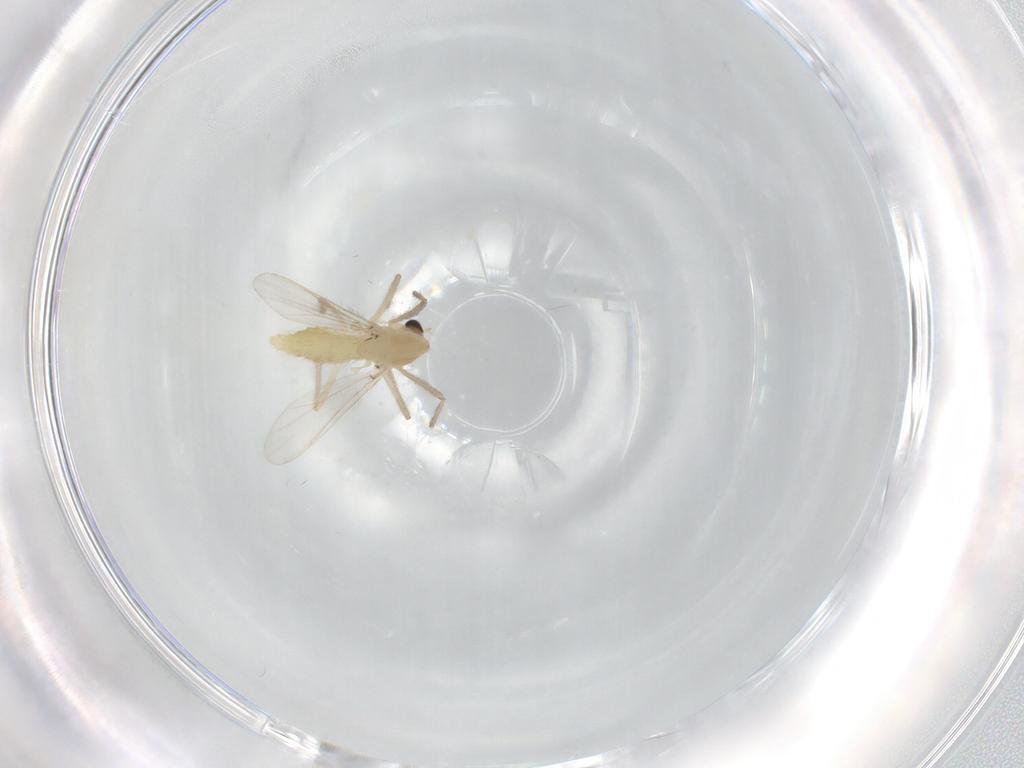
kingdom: Animalia
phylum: Arthropoda
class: Insecta
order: Diptera
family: Chironomidae
